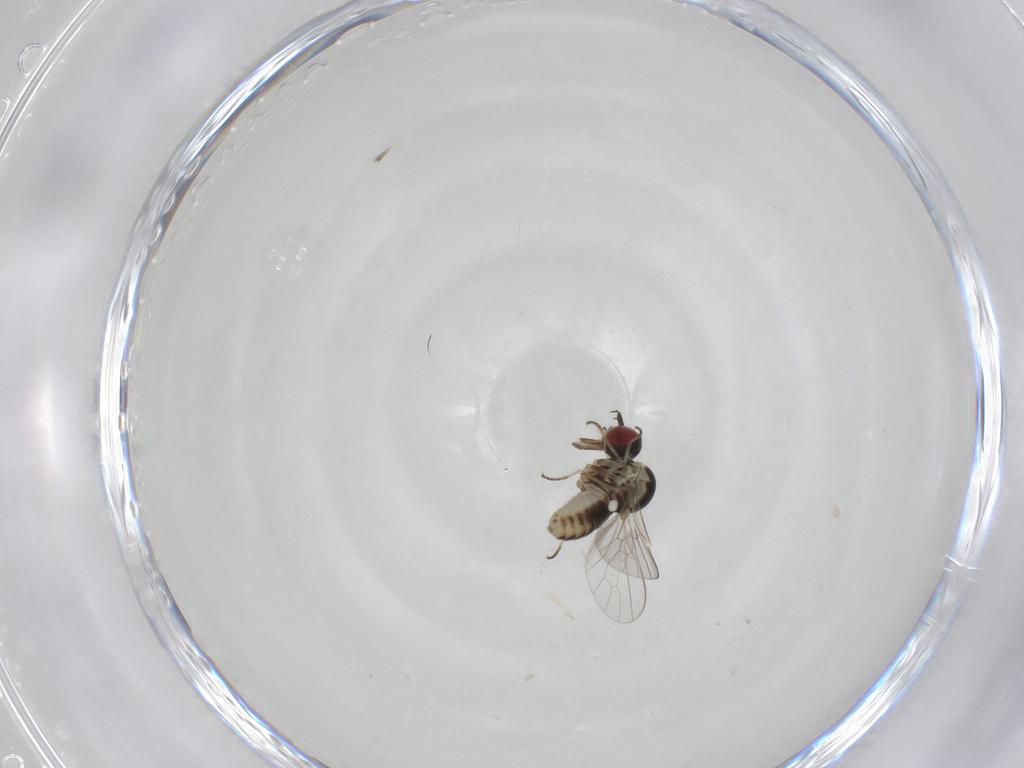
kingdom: Animalia
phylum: Arthropoda
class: Insecta
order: Diptera
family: Mythicomyiidae
